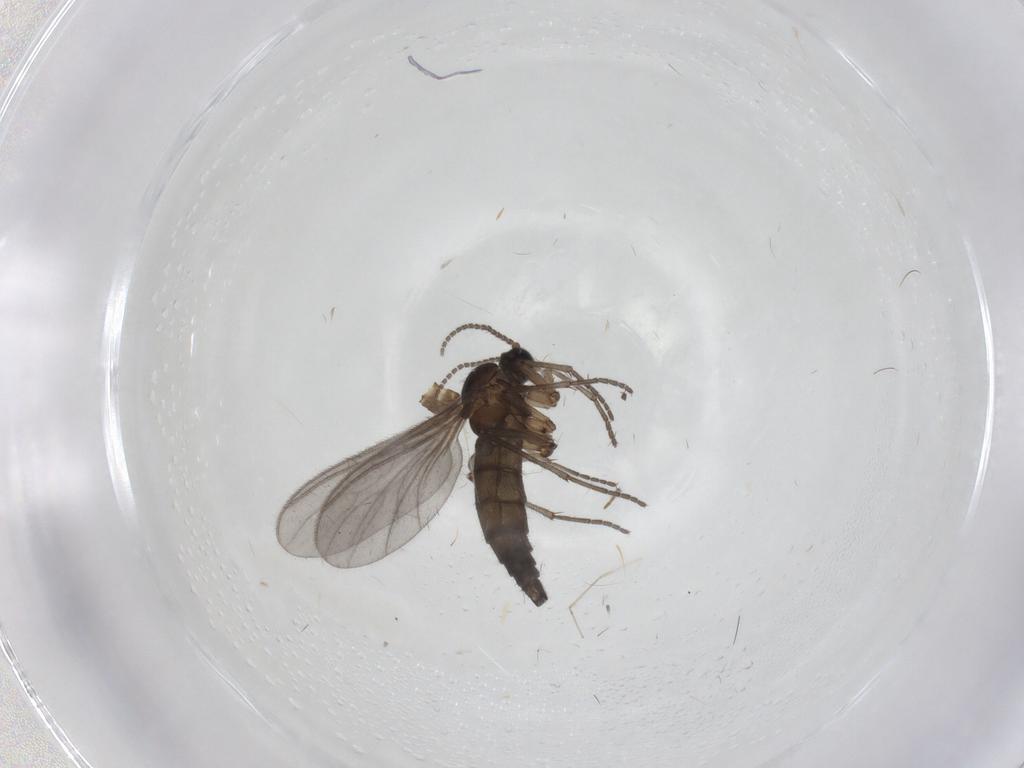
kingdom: Animalia
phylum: Arthropoda
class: Insecta
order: Diptera
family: Sciaridae
